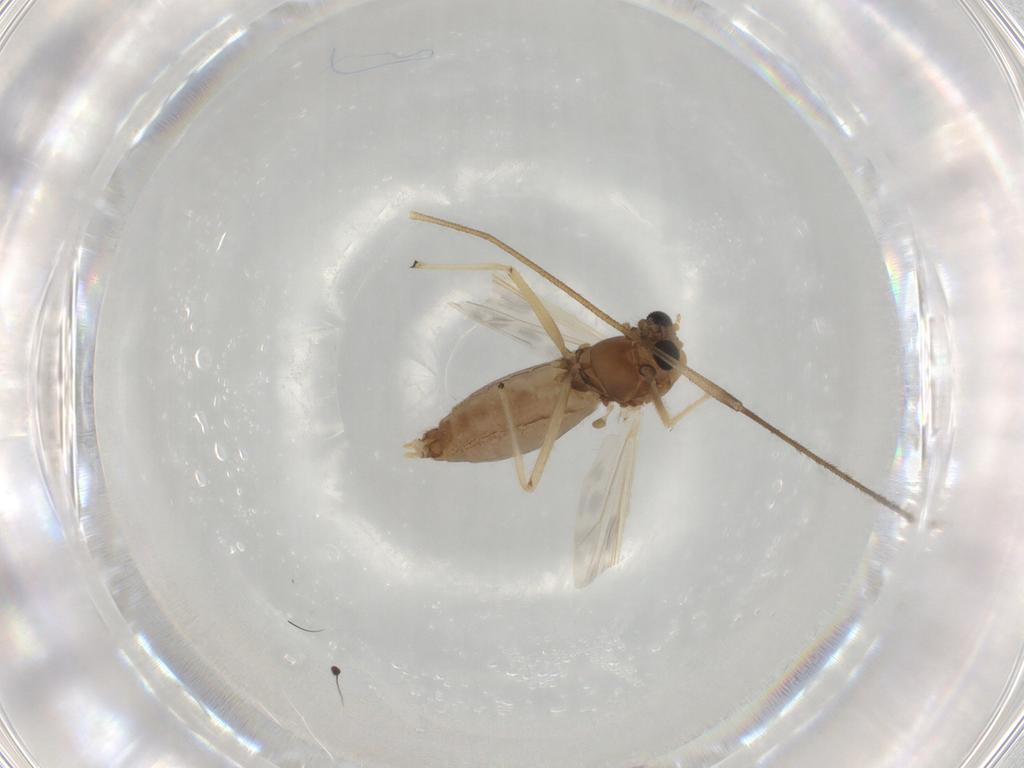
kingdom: Animalia
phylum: Arthropoda
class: Insecta
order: Diptera
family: Chironomidae
